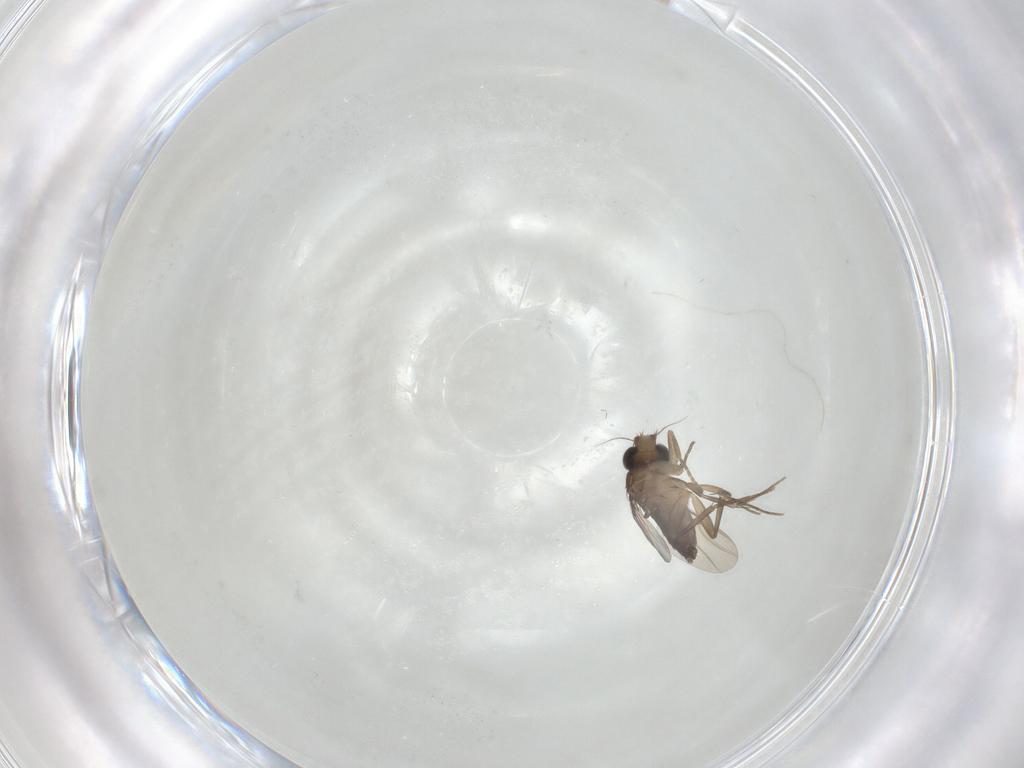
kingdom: Animalia
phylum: Arthropoda
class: Insecta
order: Diptera
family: Phoridae
